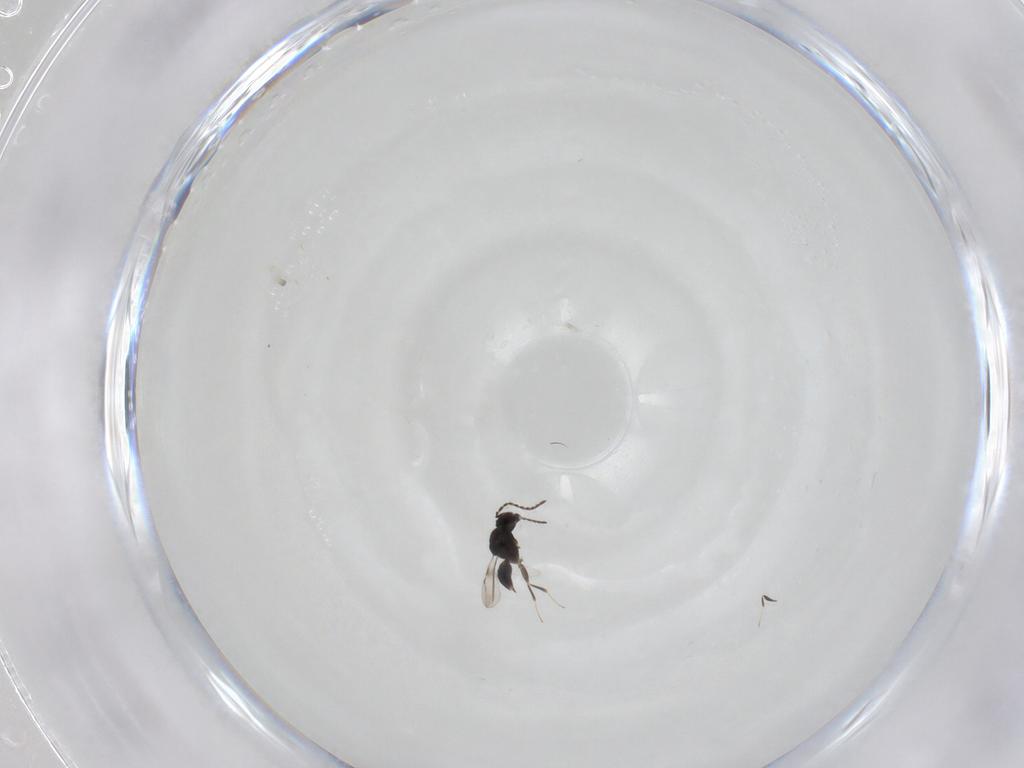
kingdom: Animalia
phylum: Arthropoda
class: Insecta
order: Hymenoptera
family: Ceraphronidae
